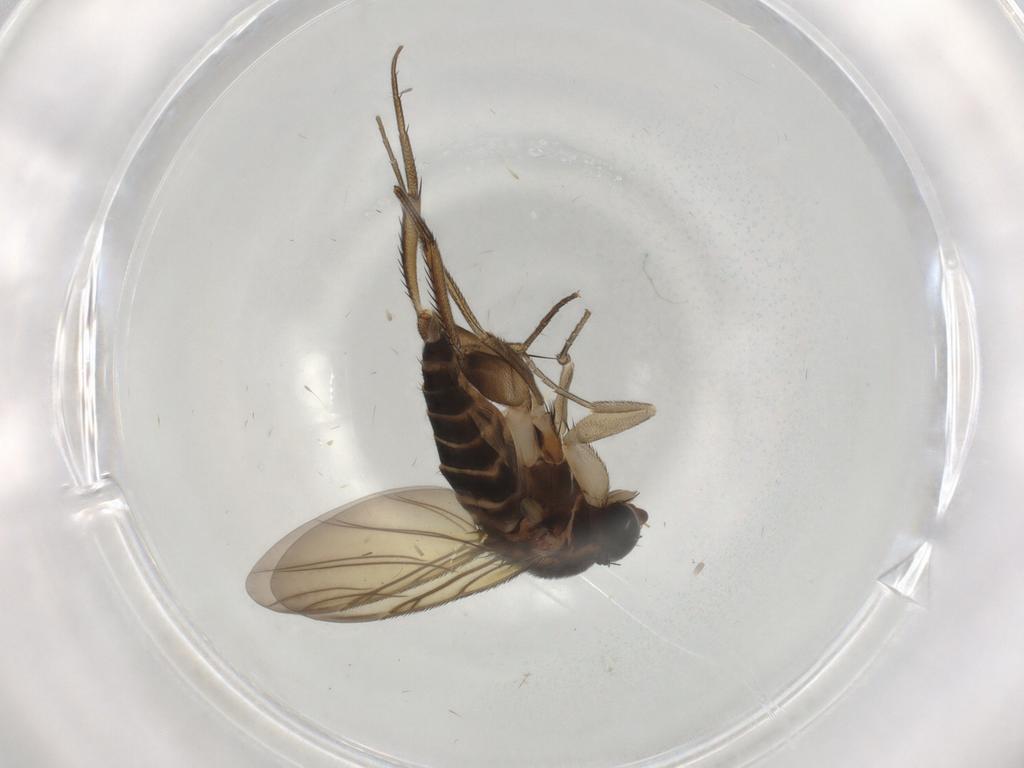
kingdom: Animalia
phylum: Arthropoda
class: Insecta
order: Diptera
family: Phoridae
